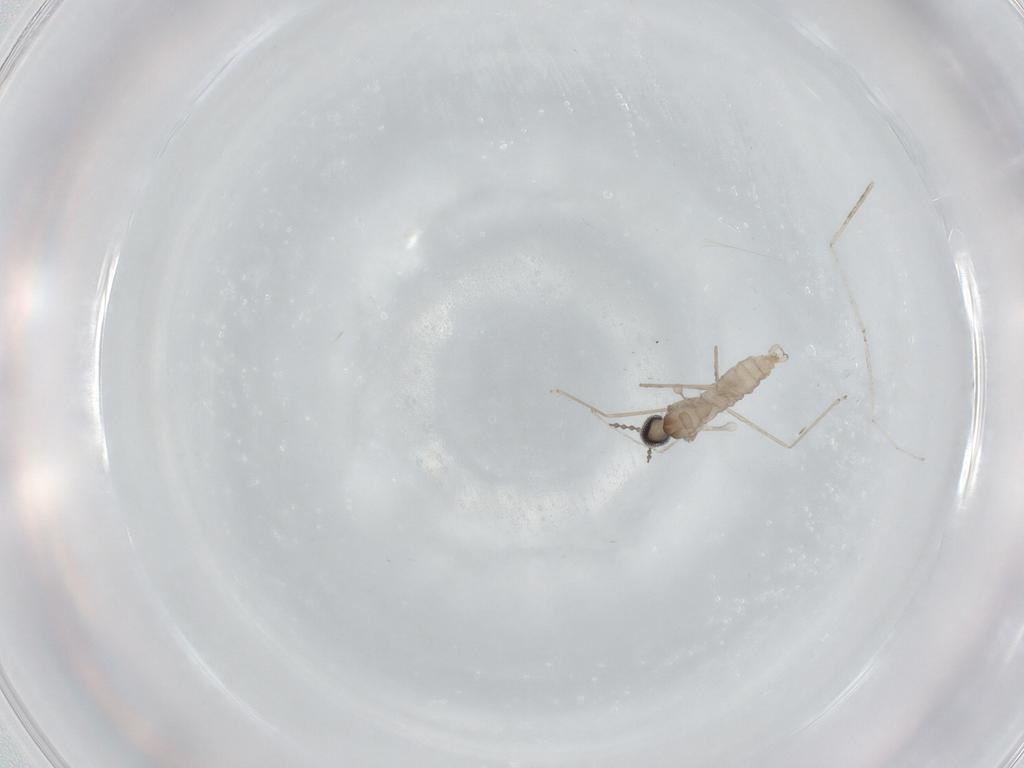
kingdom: Animalia
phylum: Arthropoda
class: Insecta
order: Diptera
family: Cecidomyiidae
